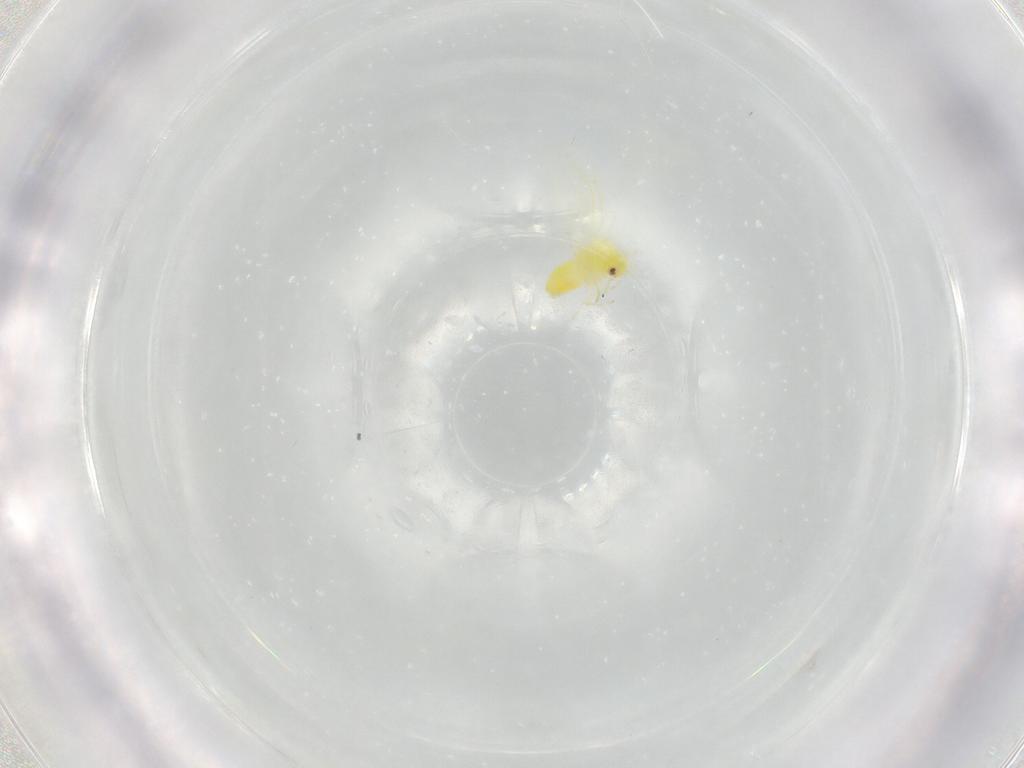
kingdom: Animalia
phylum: Arthropoda
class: Insecta
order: Hemiptera
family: Aleyrodidae
